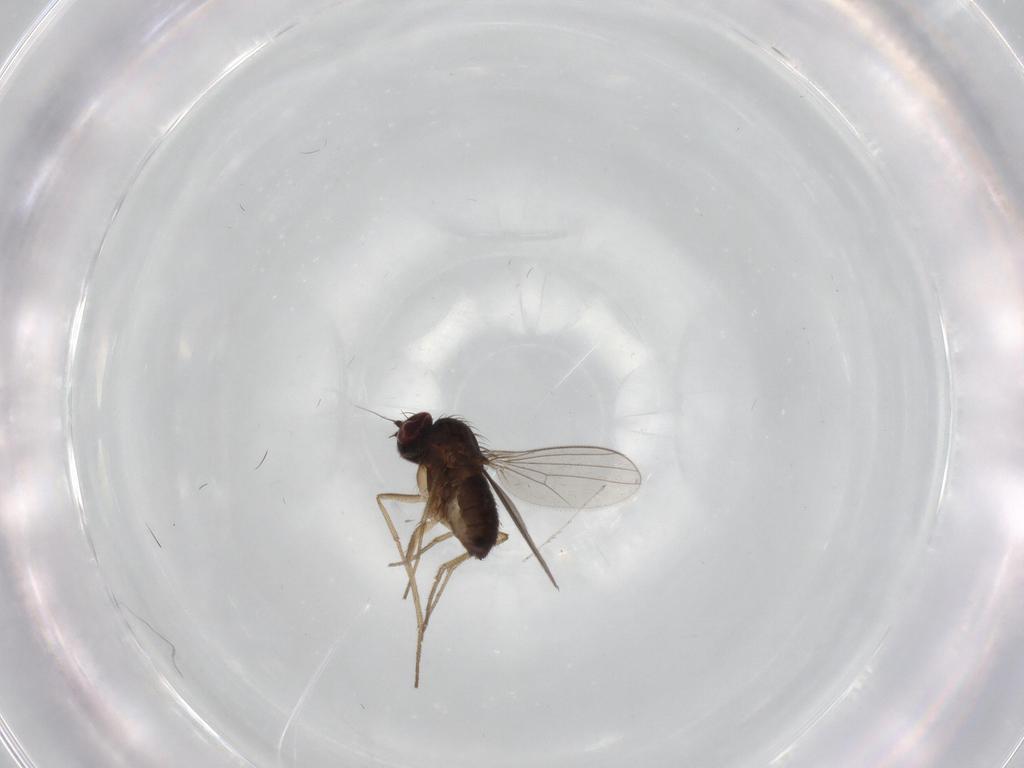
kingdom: Animalia
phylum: Arthropoda
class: Insecta
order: Diptera
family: Dolichopodidae
